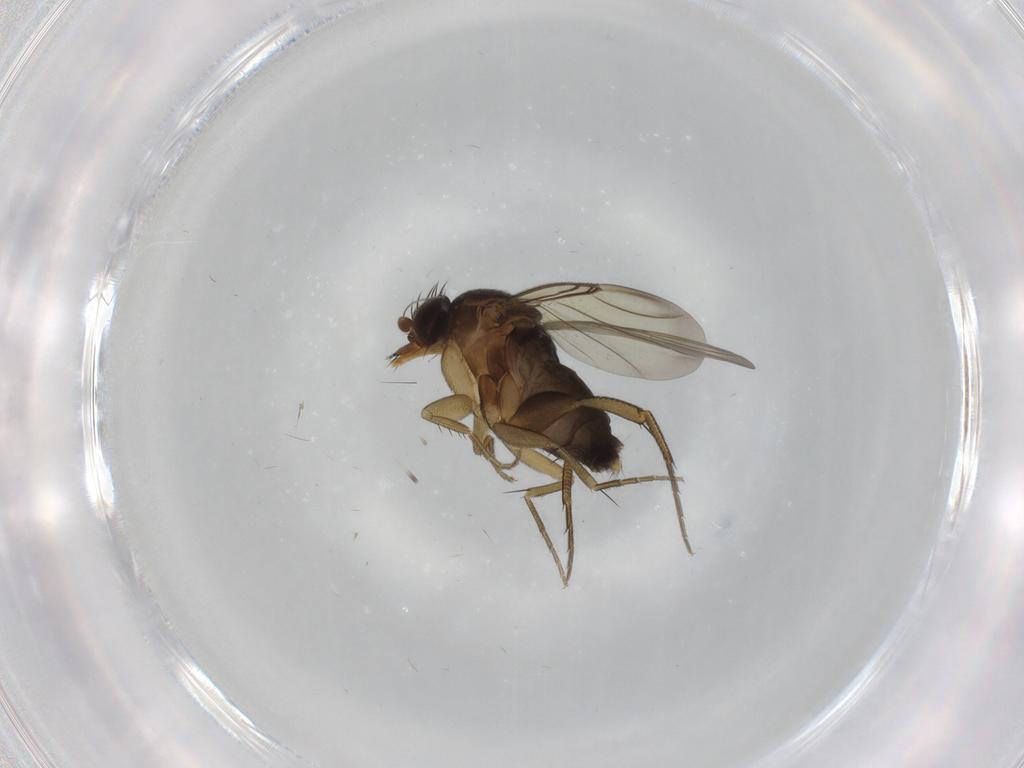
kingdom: Animalia
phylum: Arthropoda
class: Insecta
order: Diptera
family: Phoridae
